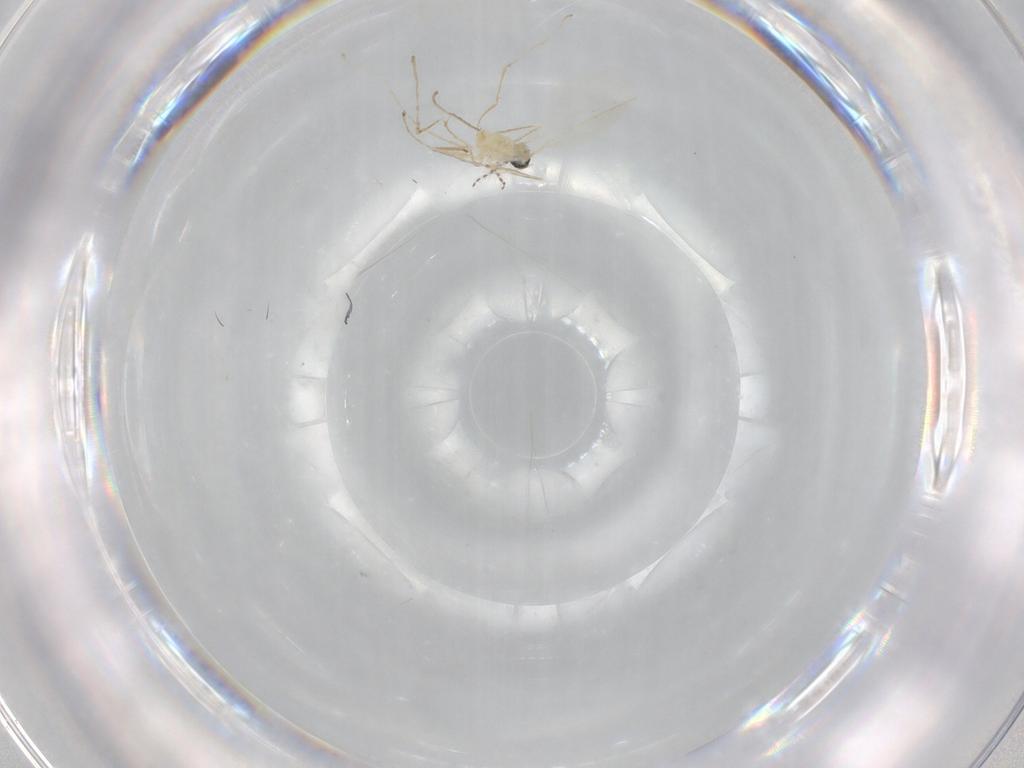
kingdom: Animalia
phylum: Arthropoda
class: Insecta
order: Diptera
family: Cecidomyiidae
